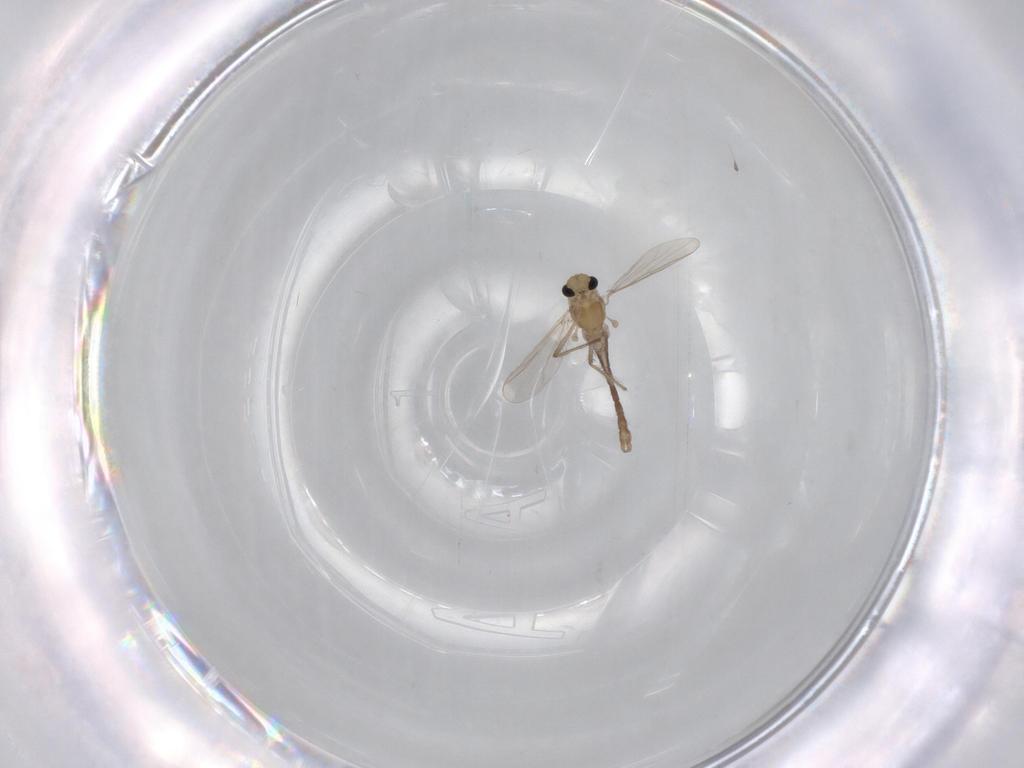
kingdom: Animalia
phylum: Arthropoda
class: Insecta
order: Diptera
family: Chironomidae
